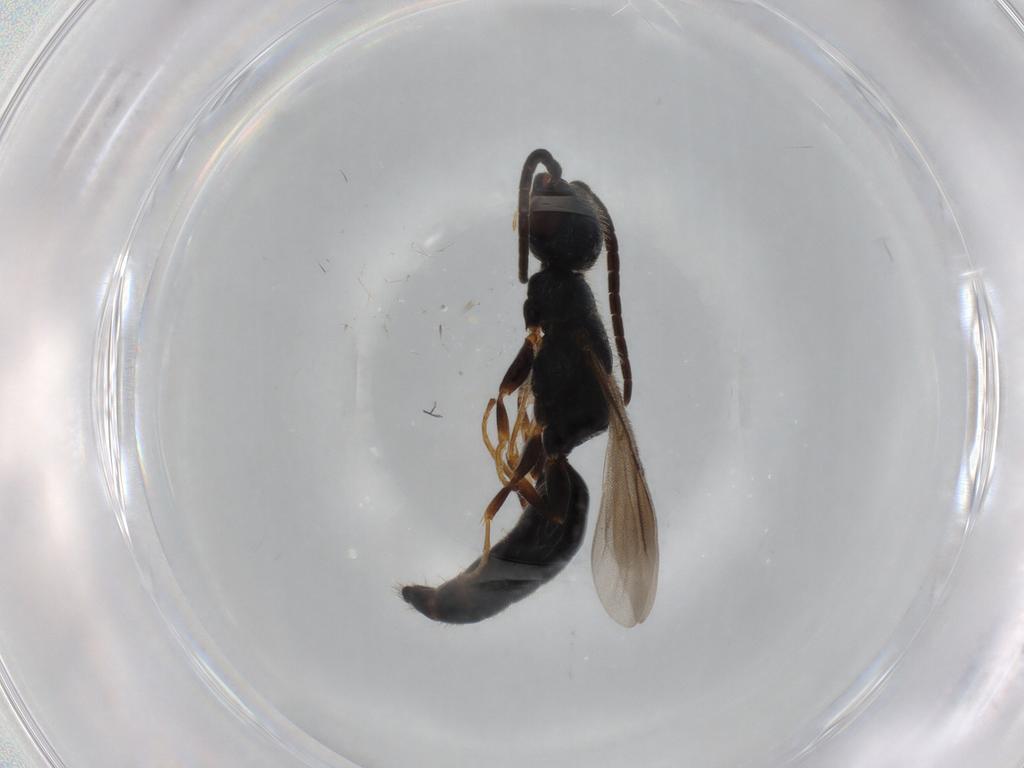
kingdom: Animalia
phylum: Arthropoda
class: Insecta
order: Hymenoptera
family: Bethylidae
